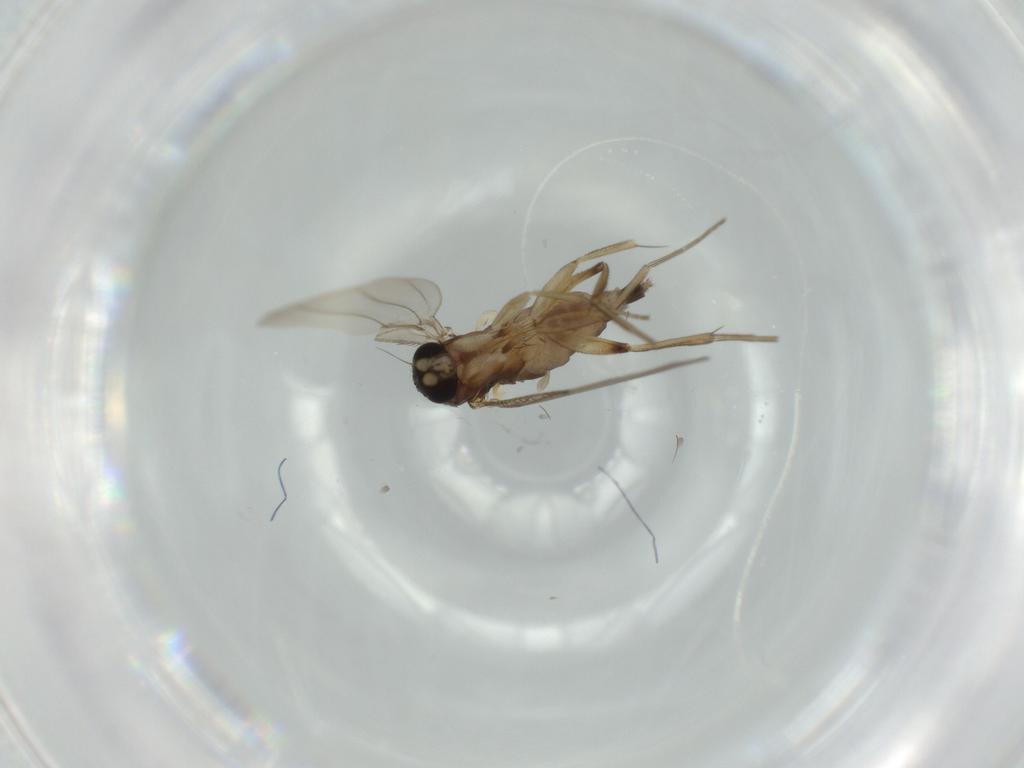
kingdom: Animalia
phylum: Arthropoda
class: Insecta
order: Diptera
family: Phoridae
